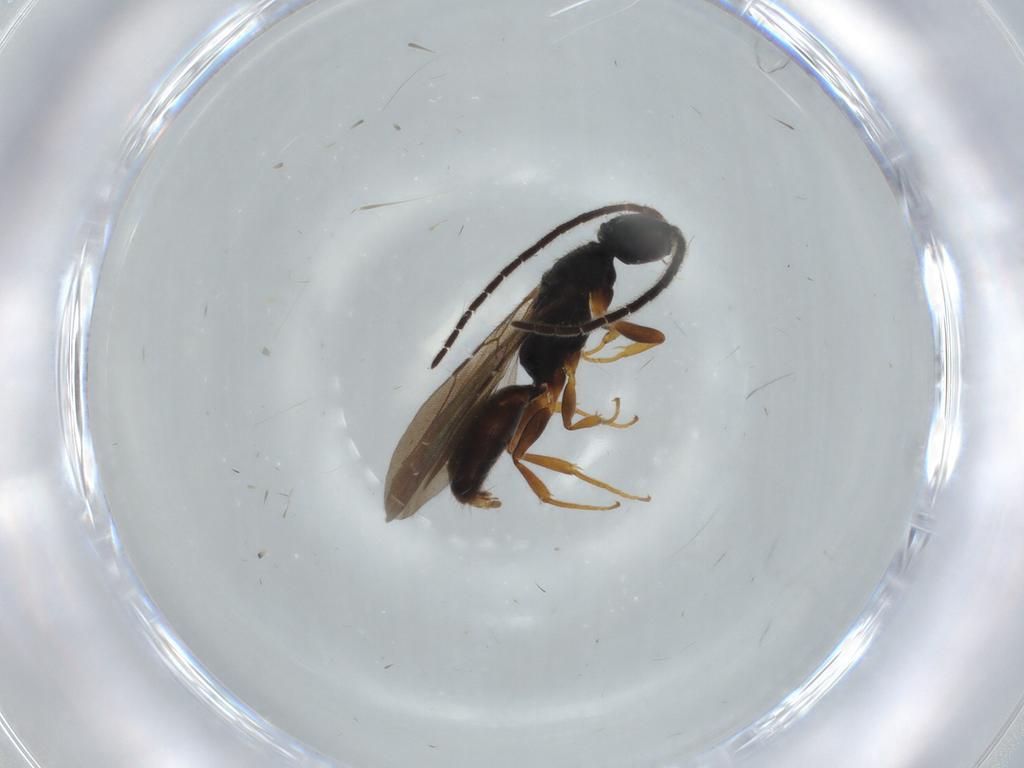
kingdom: Animalia
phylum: Arthropoda
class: Insecta
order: Hymenoptera
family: Bethylidae
